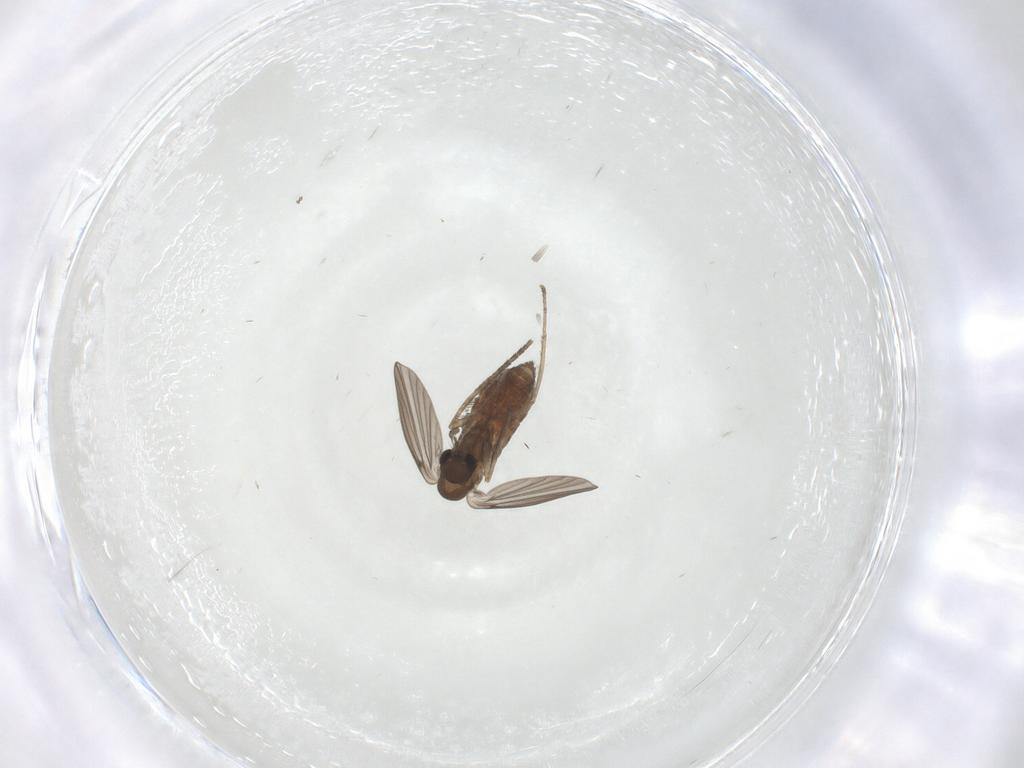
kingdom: Animalia
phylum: Arthropoda
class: Insecta
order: Diptera
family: Cecidomyiidae
